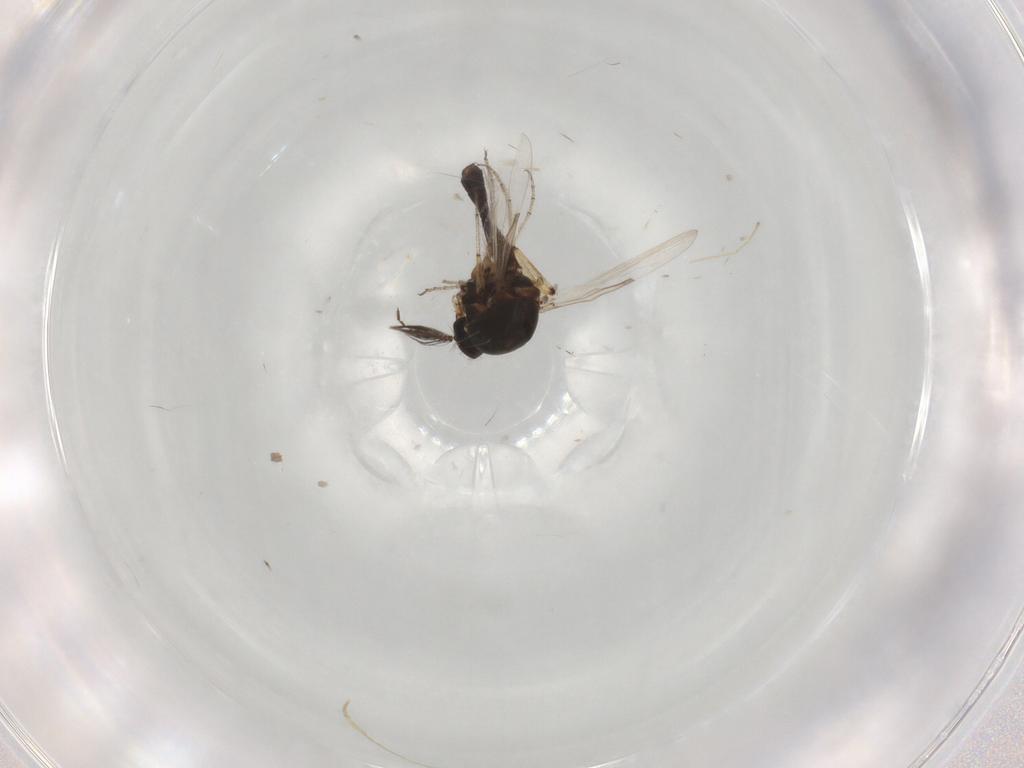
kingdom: Animalia
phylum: Arthropoda
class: Insecta
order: Diptera
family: Ceratopogonidae
